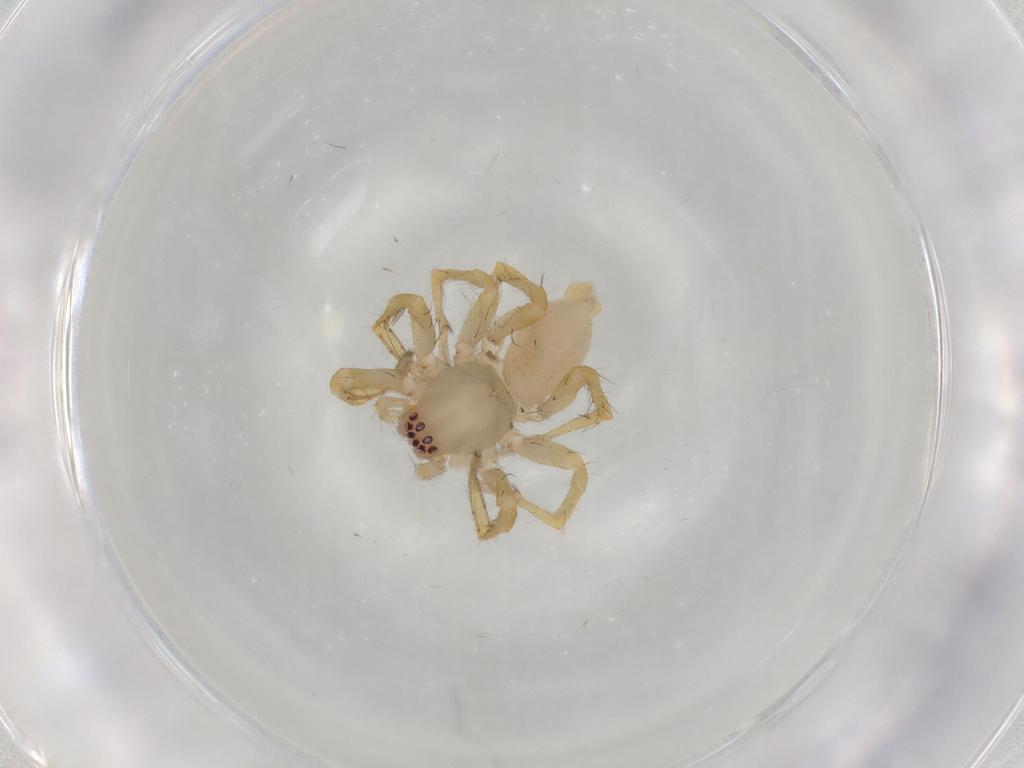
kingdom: Animalia
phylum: Arthropoda
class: Arachnida
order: Araneae
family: Clubionidae
